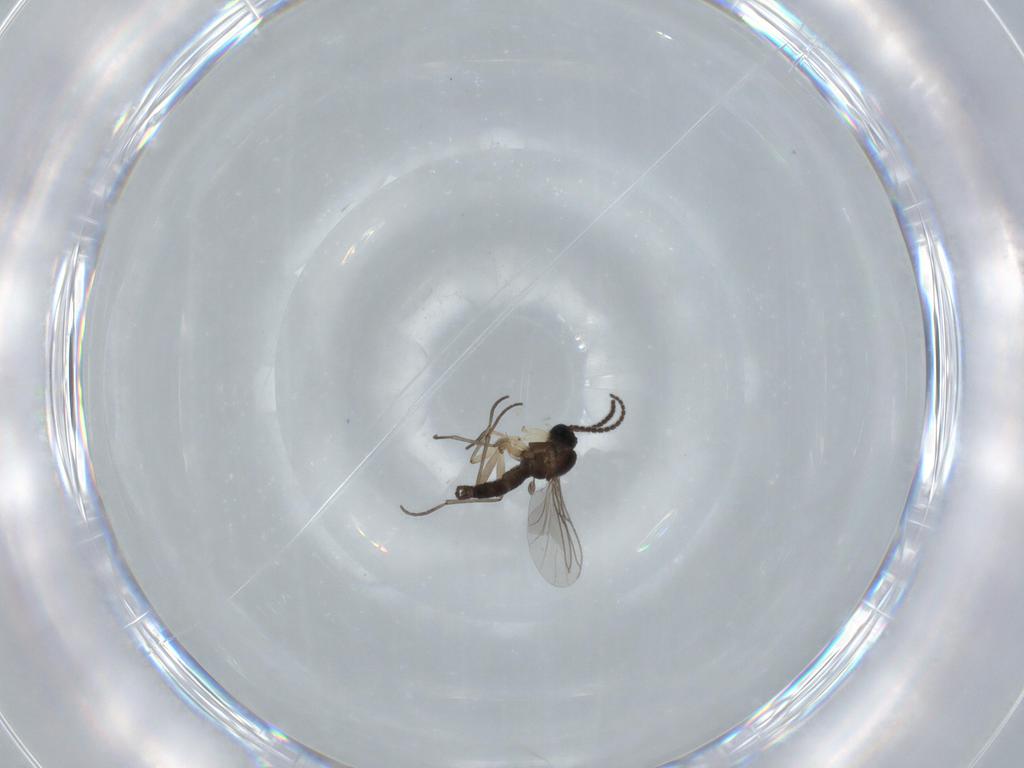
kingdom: Animalia
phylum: Arthropoda
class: Insecta
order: Diptera
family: Sciaridae
